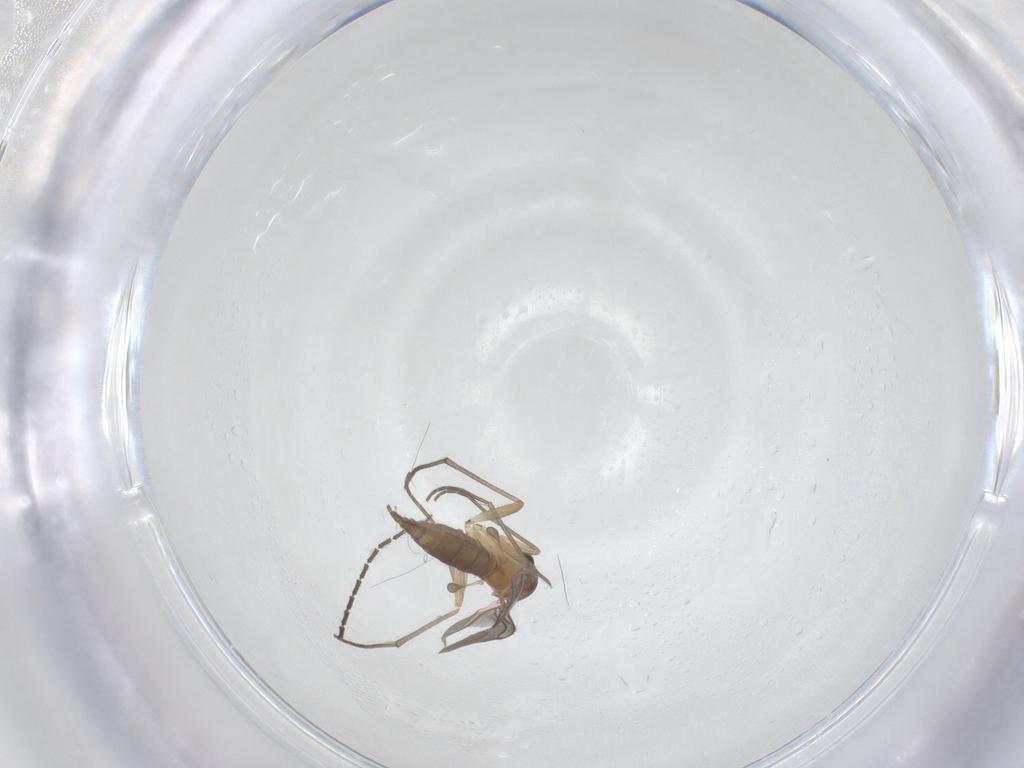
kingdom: Animalia
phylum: Arthropoda
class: Insecta
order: Diptera
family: Sciaridae
